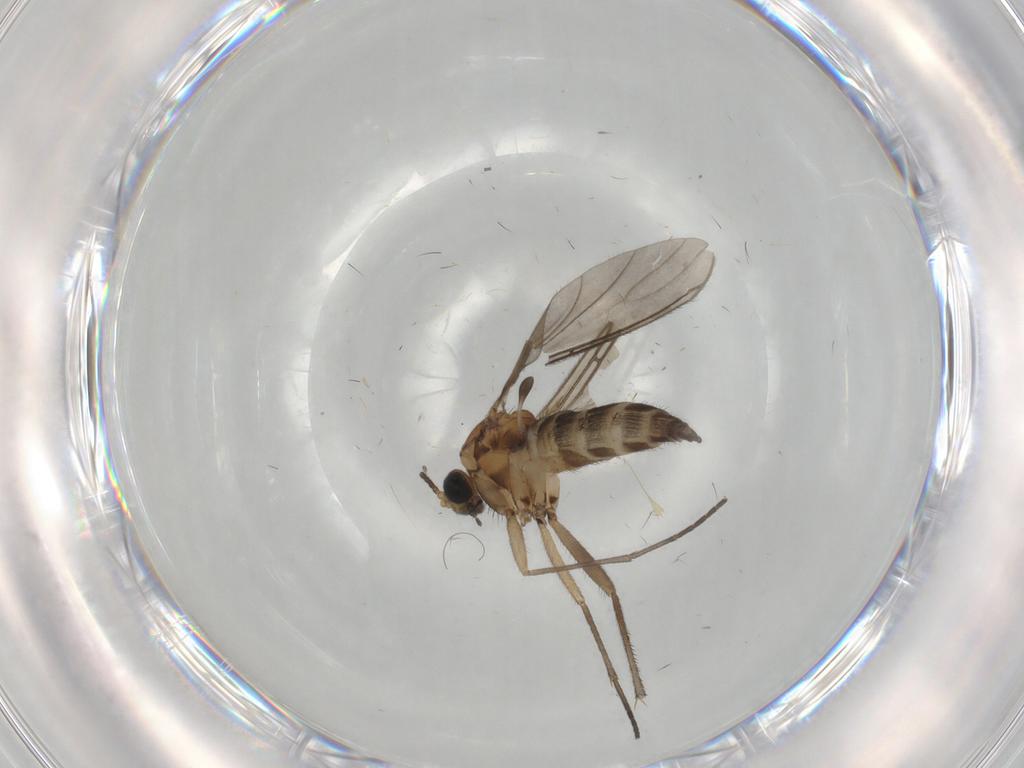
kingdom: Animalia
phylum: Arthropoda
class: Insecta
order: Diptera
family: Sciaridae
